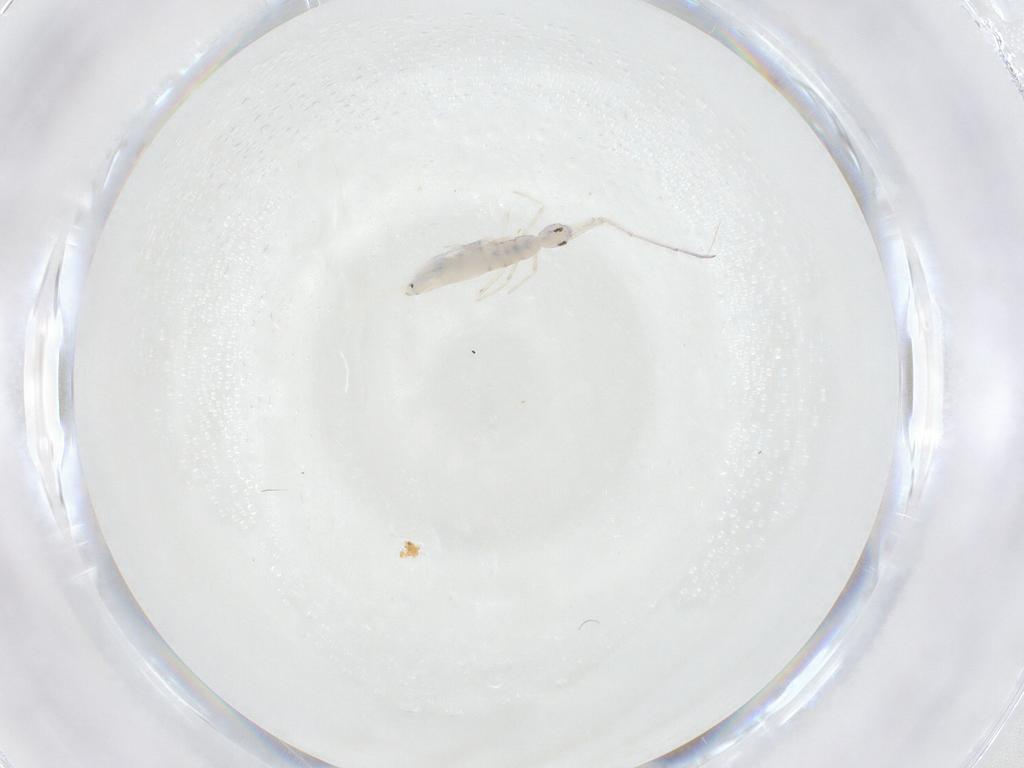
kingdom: Animalia
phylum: Arthropoda
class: Collembola
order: Entomobryomorpha
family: Entomobryidae
